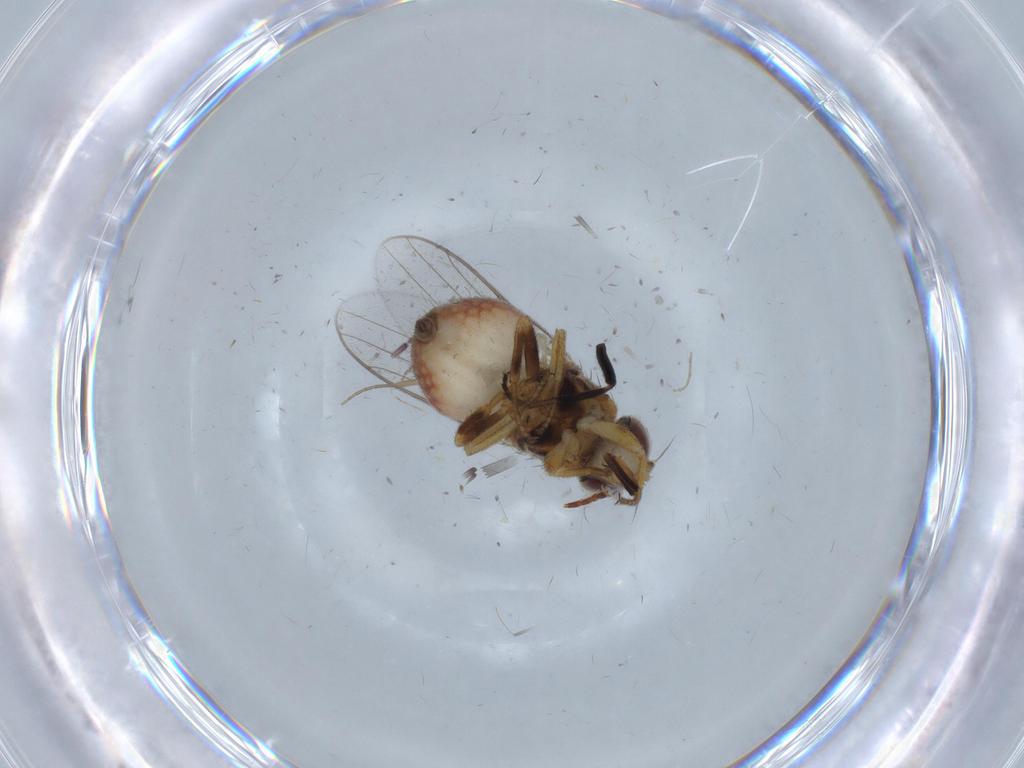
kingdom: Animalia
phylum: Arthropoda
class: Insecta
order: Diptera
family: Milichiidae
